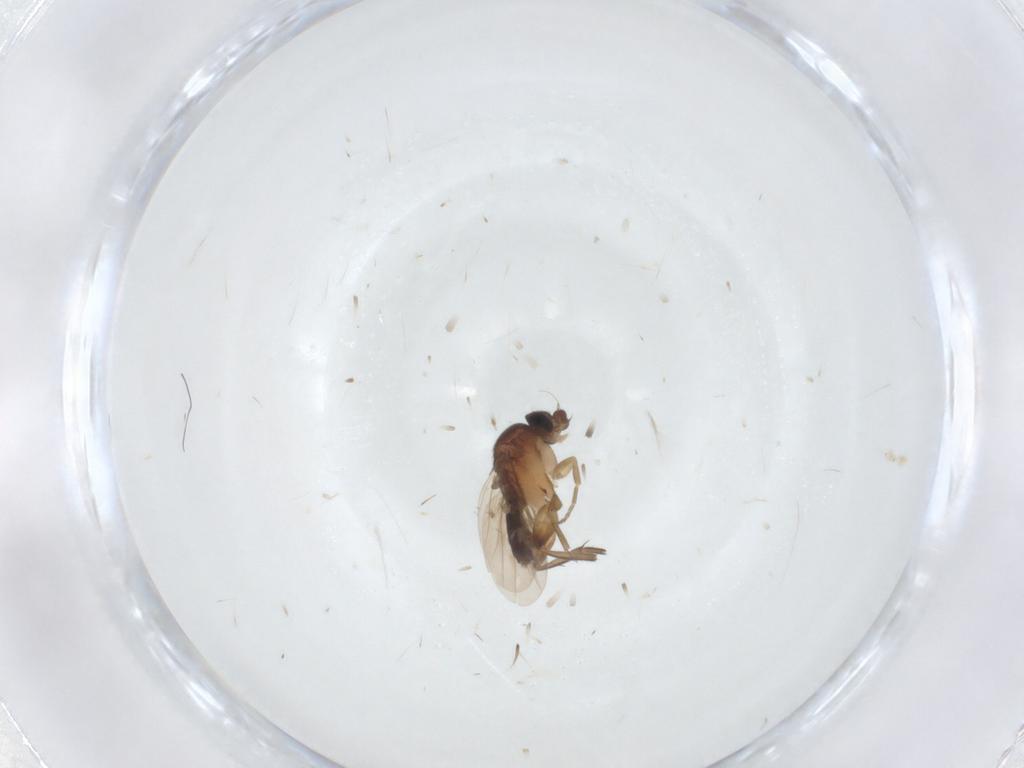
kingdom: Animalia
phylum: Arthropoda
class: Insecta
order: Diptera
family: Phoridae
